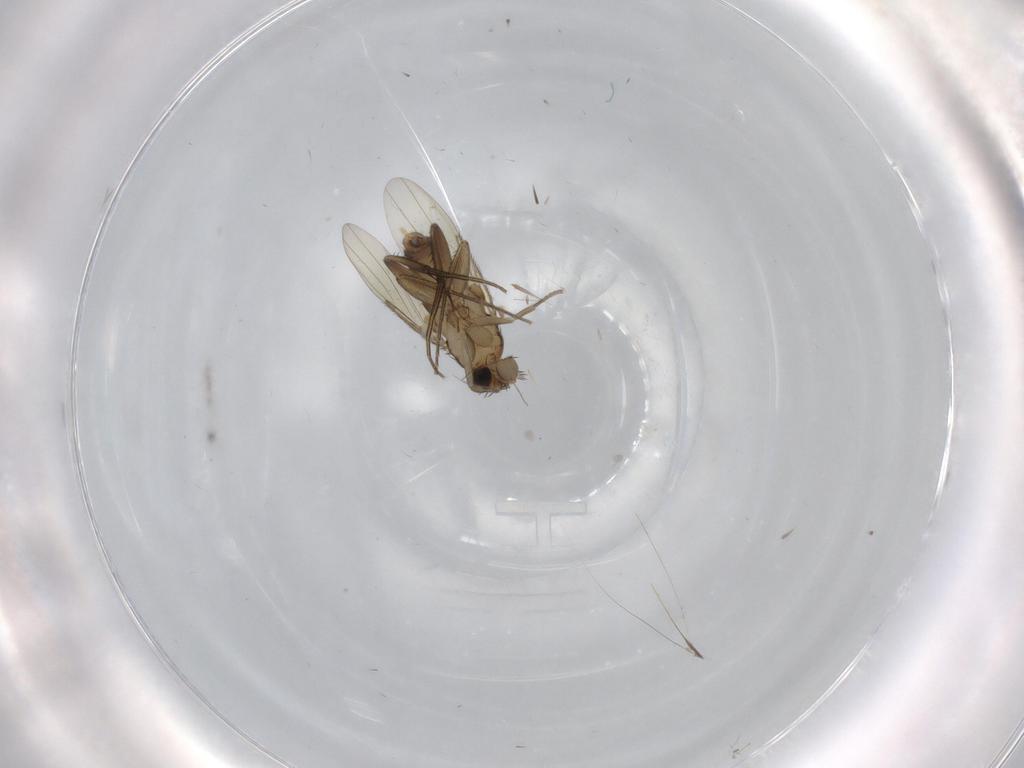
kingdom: Animalia
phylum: Arthropoda
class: Insecta
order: Diptera
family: Phoridae
